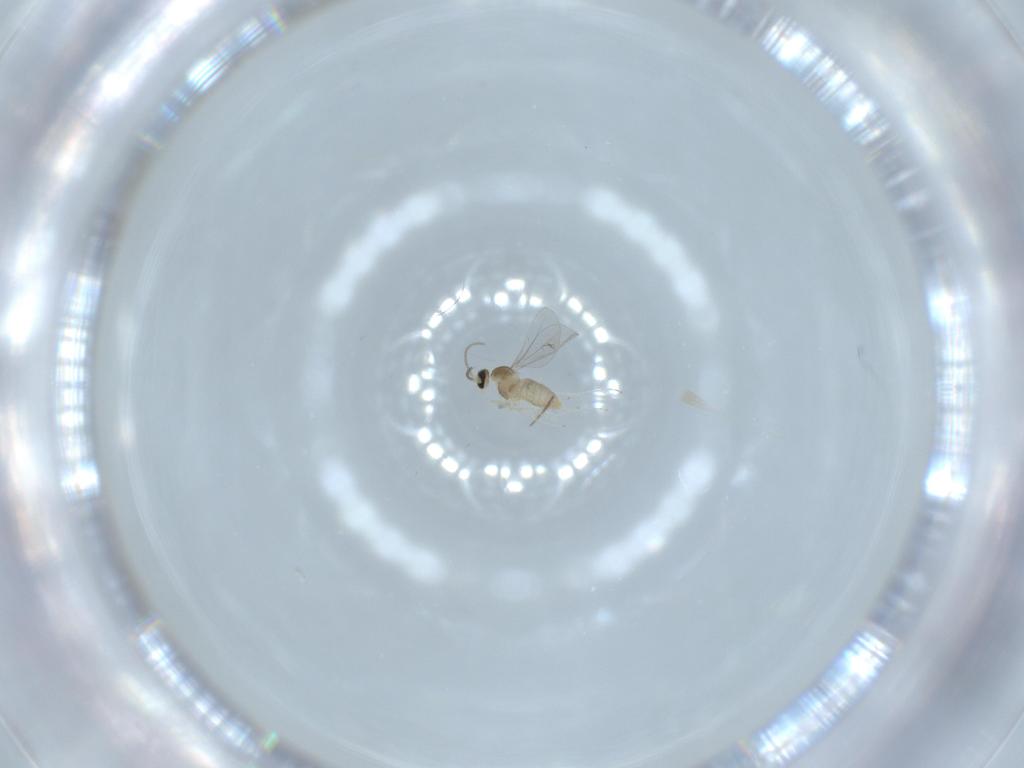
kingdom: Animalia
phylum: Arthropoda
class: Insecta
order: Diptera
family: Cecidomyiidae
